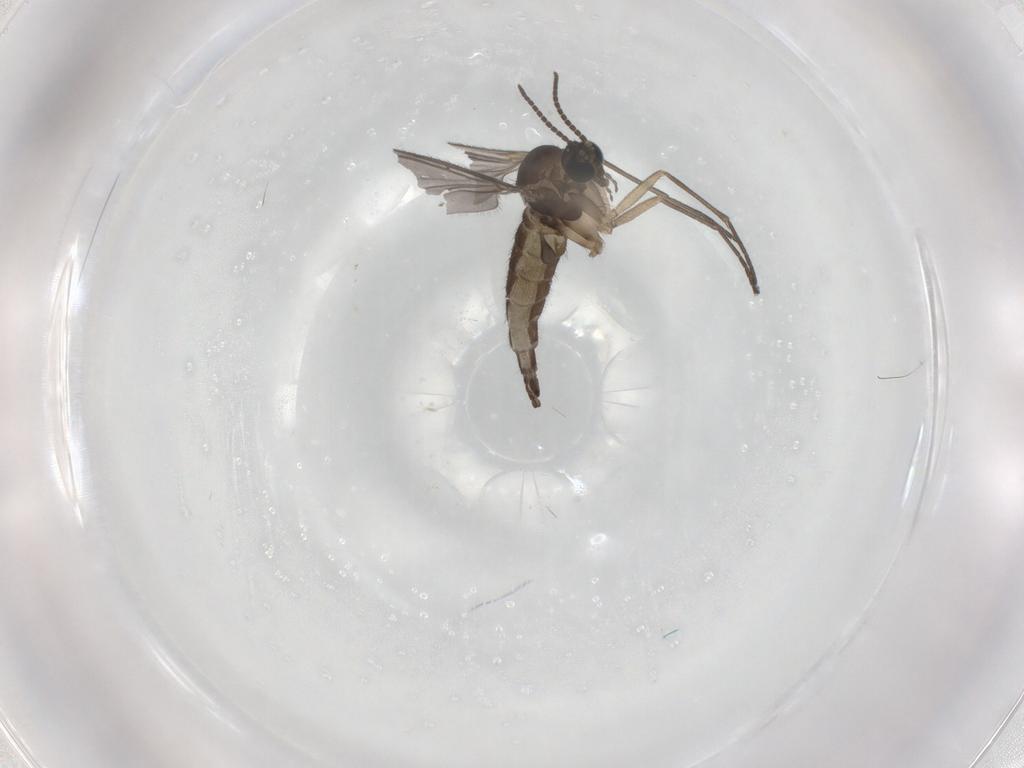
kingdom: Animalia
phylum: Arthropoda
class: Insecta
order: Diptera
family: Sciaridae
